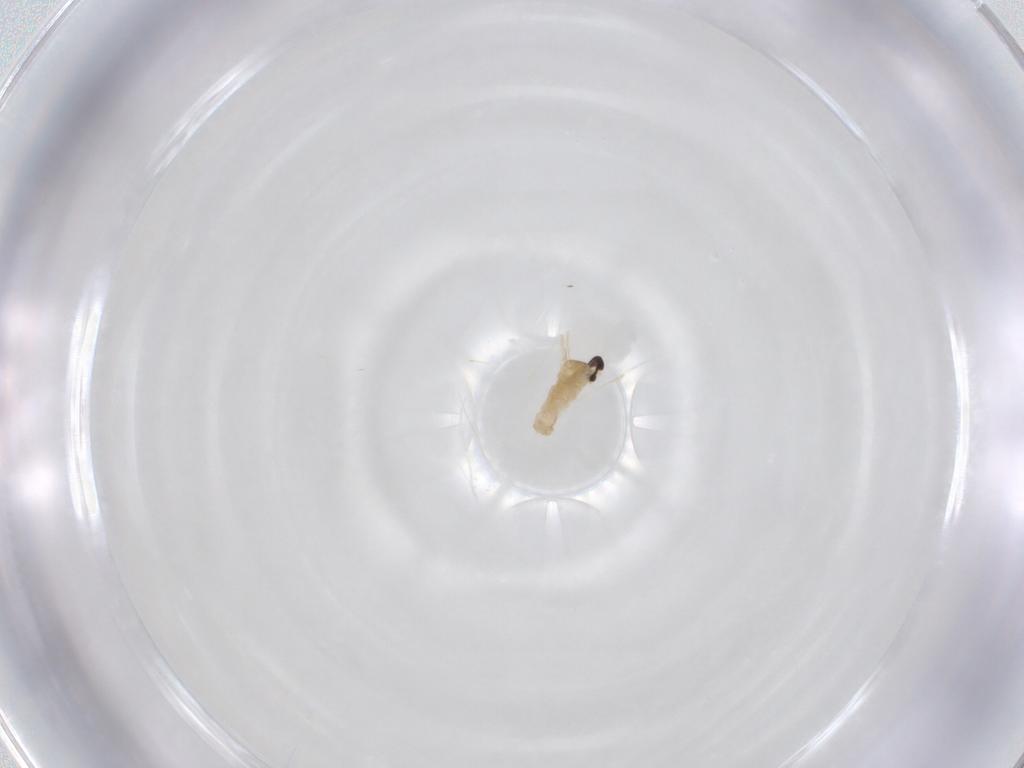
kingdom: Animalia
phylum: Arthropoda
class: Insecta
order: Diptera
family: Cecidomyiidae
